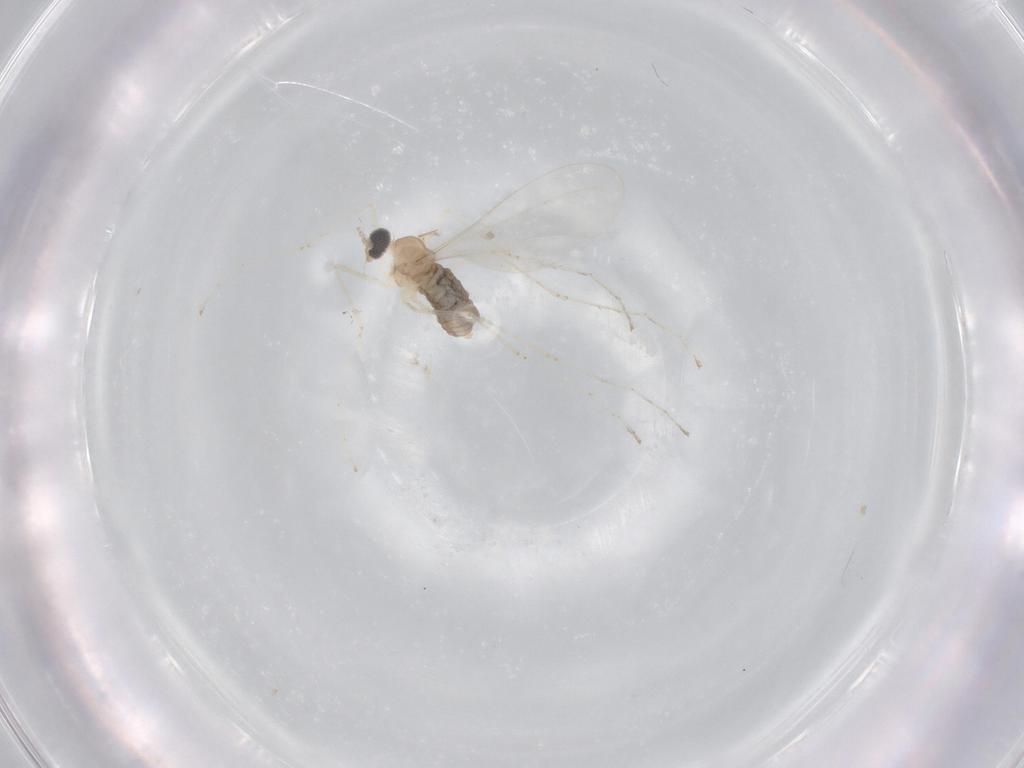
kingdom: Animalia
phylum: Arthropoda
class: Insecta
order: Diptera
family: Cecidomyiidae
